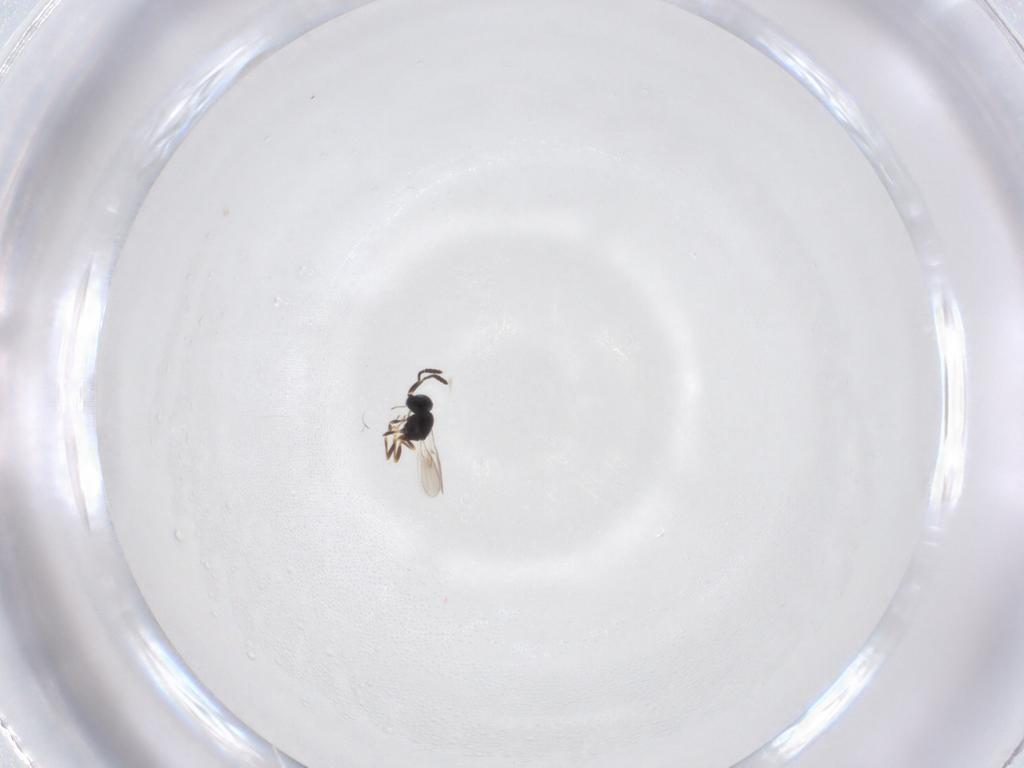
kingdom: Animalia
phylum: Arthropoda
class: Insecta
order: Hymenoptera
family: Scelionidae
